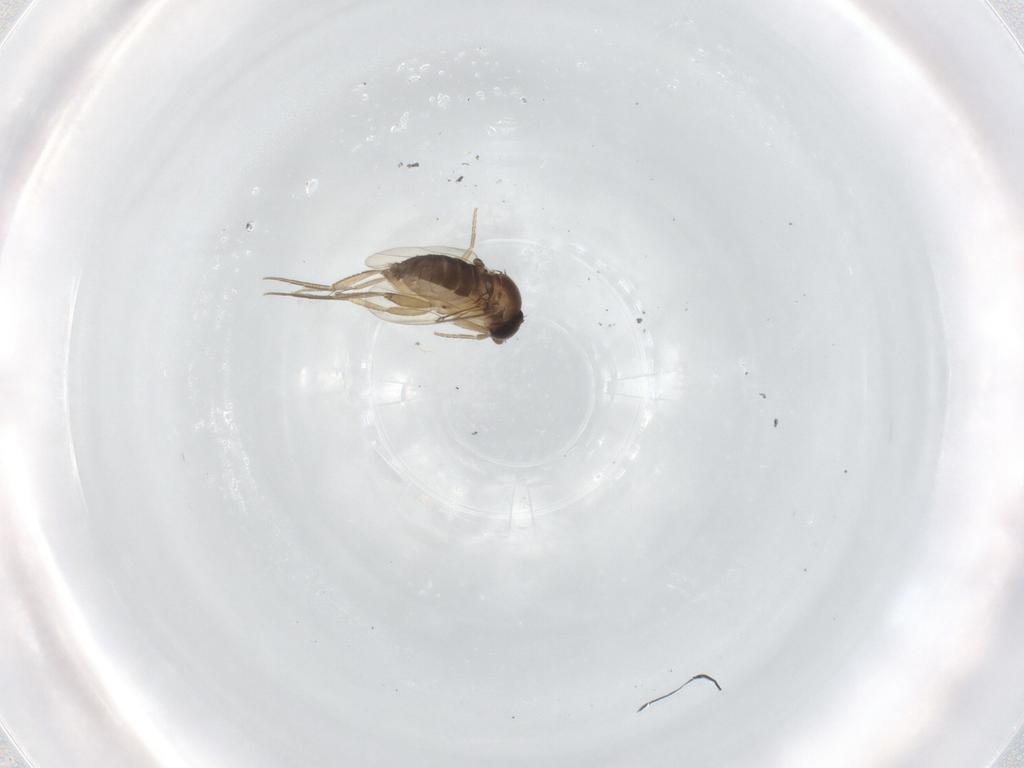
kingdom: Animalia
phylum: Arthropoda
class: Insecta
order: Diptera
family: Phoridae
